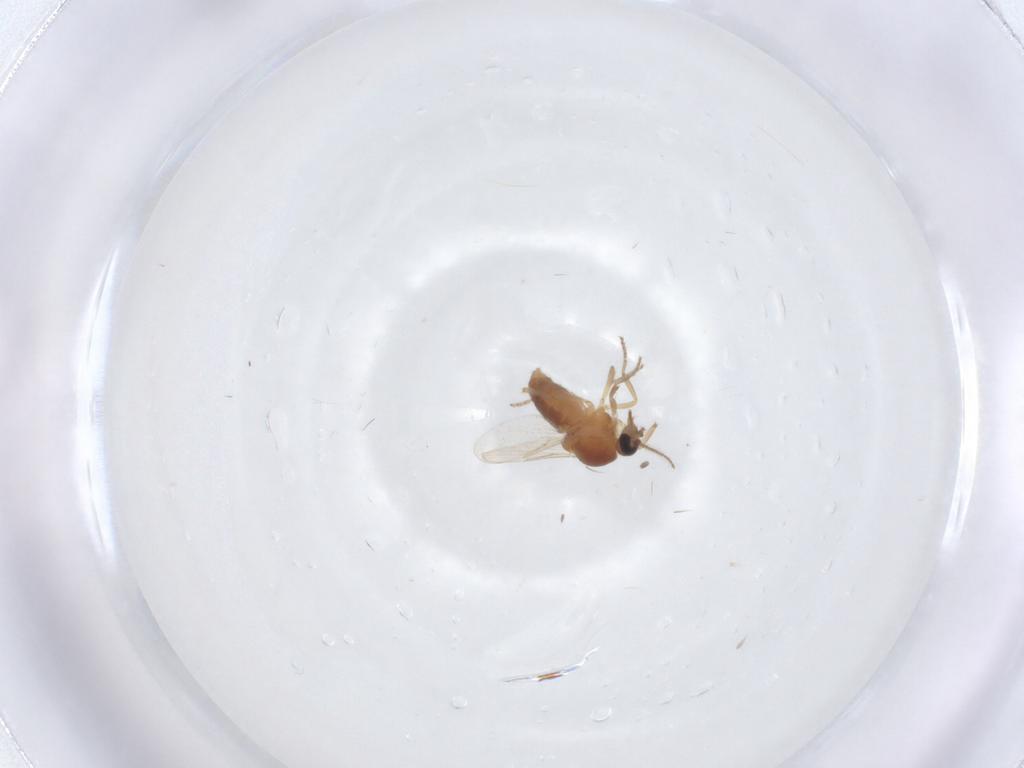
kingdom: Animalia
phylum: Arthropoda
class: Insecta
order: Diptera
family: Ceratopogonidae
